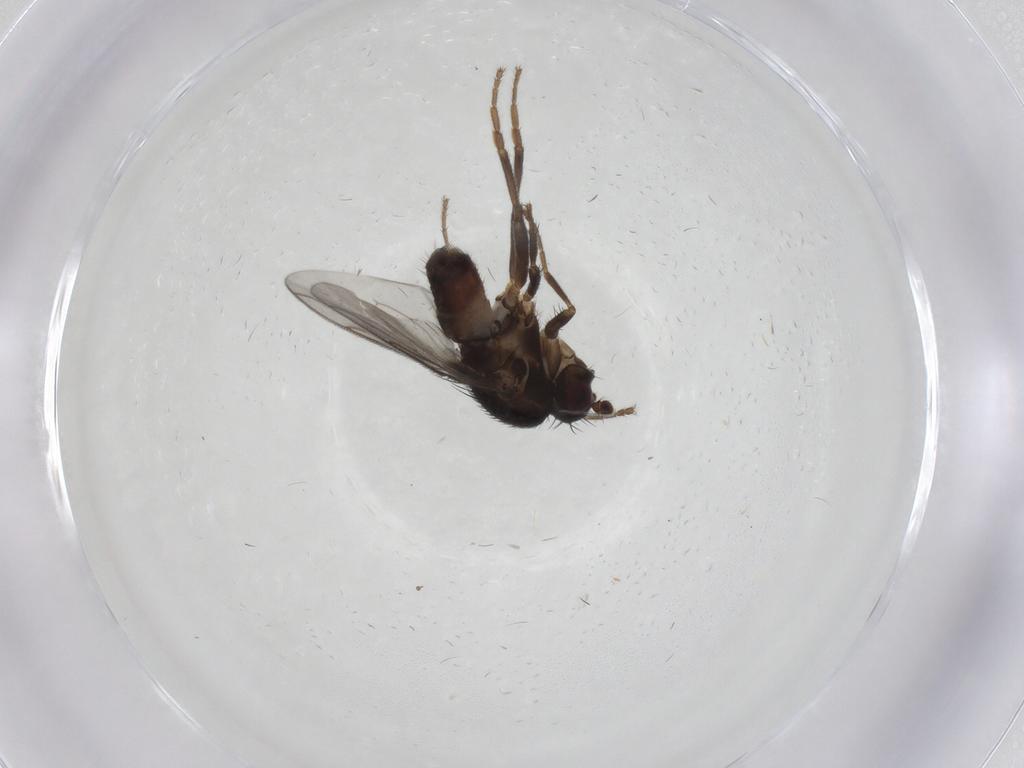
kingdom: Animalia
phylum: Arthropoda
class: Insecta
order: Diptera
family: Sphaeroceridae
